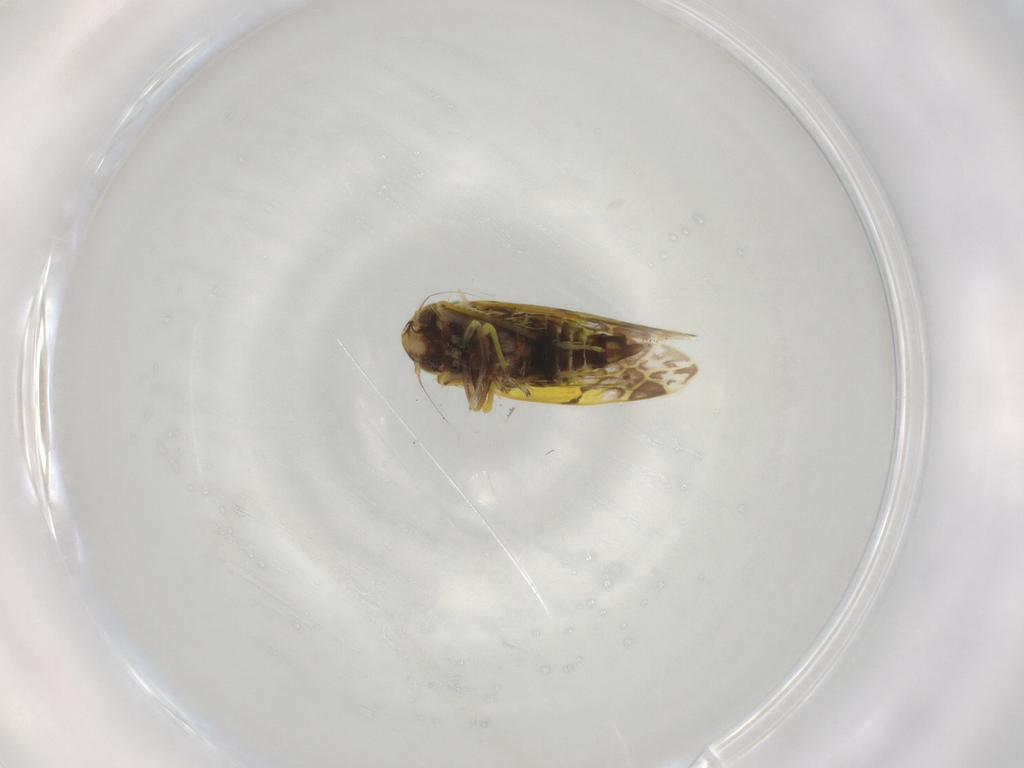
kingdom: Animalia
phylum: Arthropoda
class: Insecta
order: Hemiptera
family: Cicadellidae
